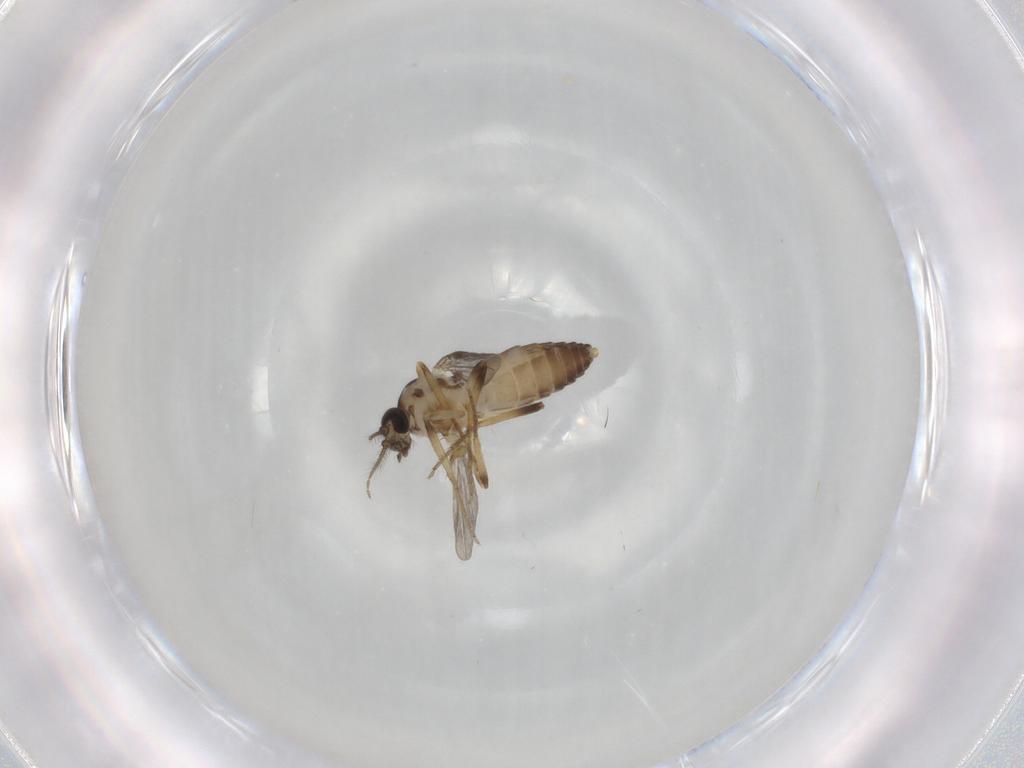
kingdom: Animalia
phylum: Arthropoda
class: Insecta
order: Diptera
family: Ceratopogonidae
